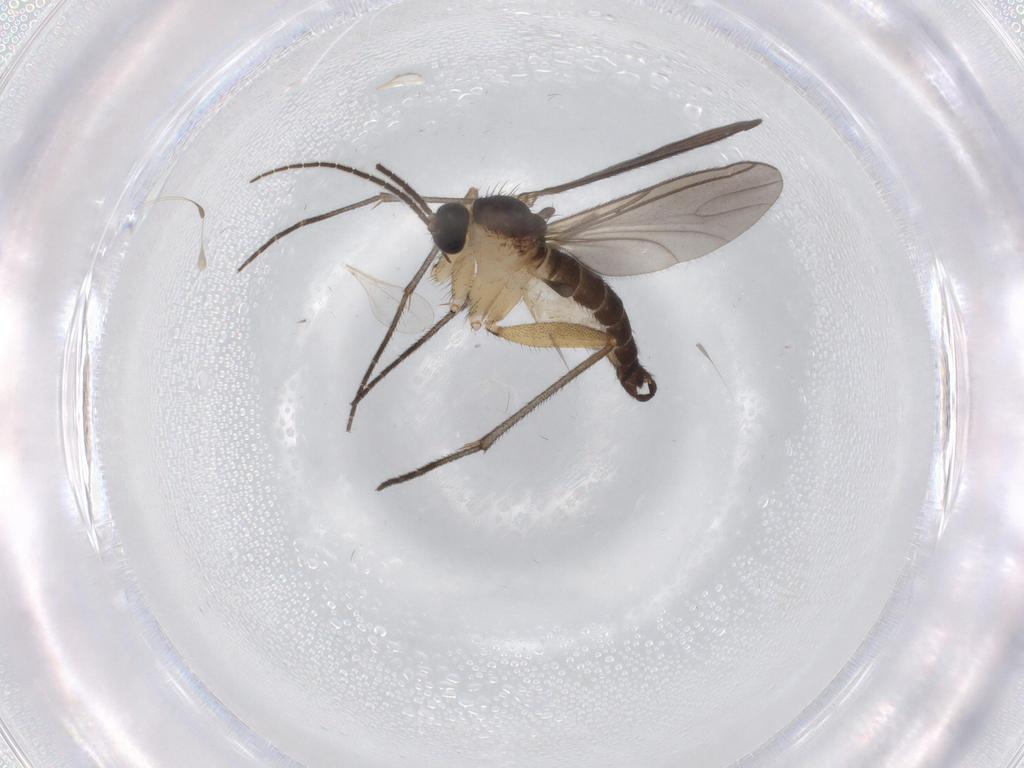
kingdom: Animalia
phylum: Arthropoda
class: Insecta
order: Diptera
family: Sciaridae
